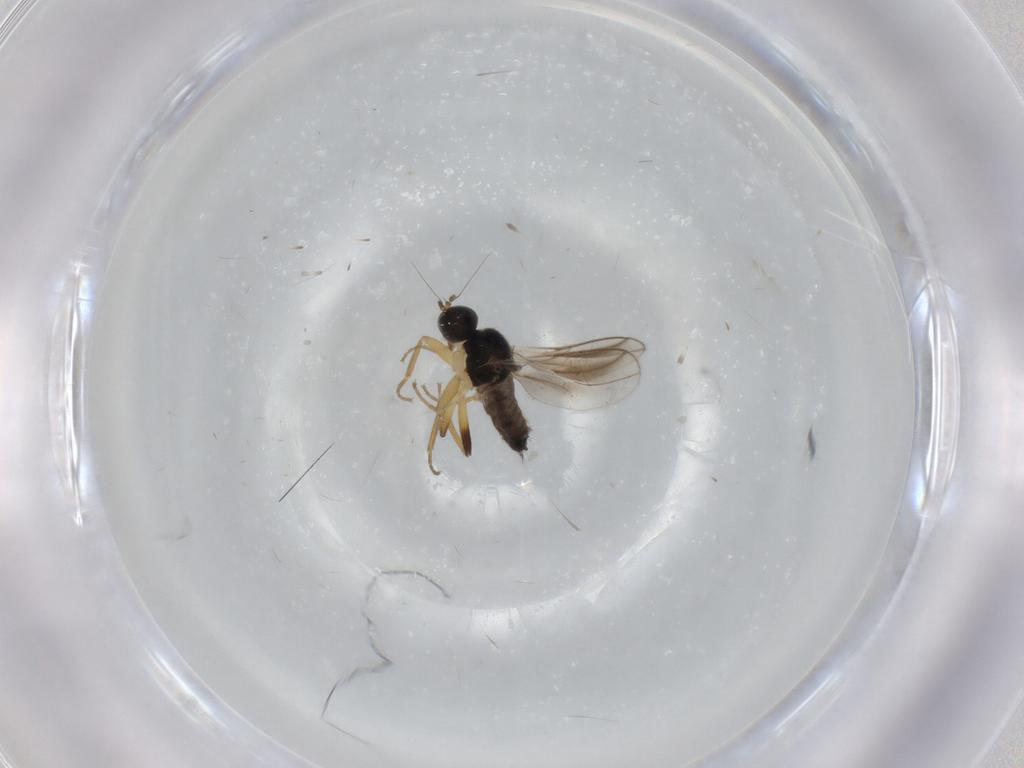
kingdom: Animalia
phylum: Arthropoda
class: Insecta
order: Diptera
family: Hybotidae
